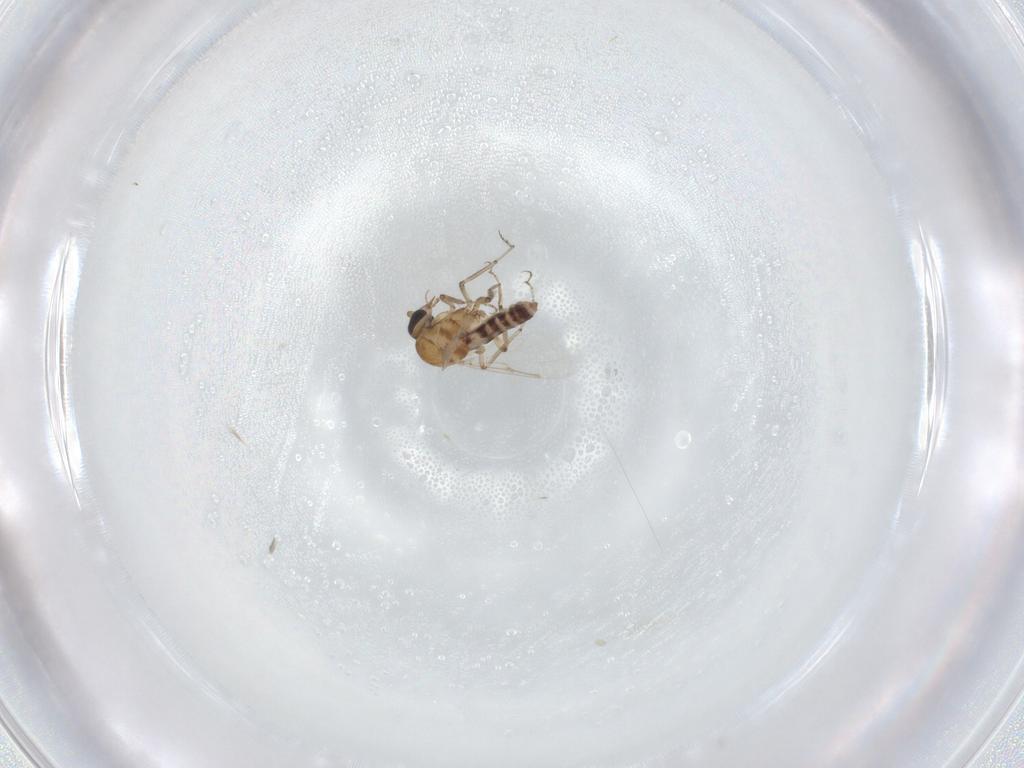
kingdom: Animalia
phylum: Arthropoda
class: Insecta
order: Diptera
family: Ceratopogonidae
